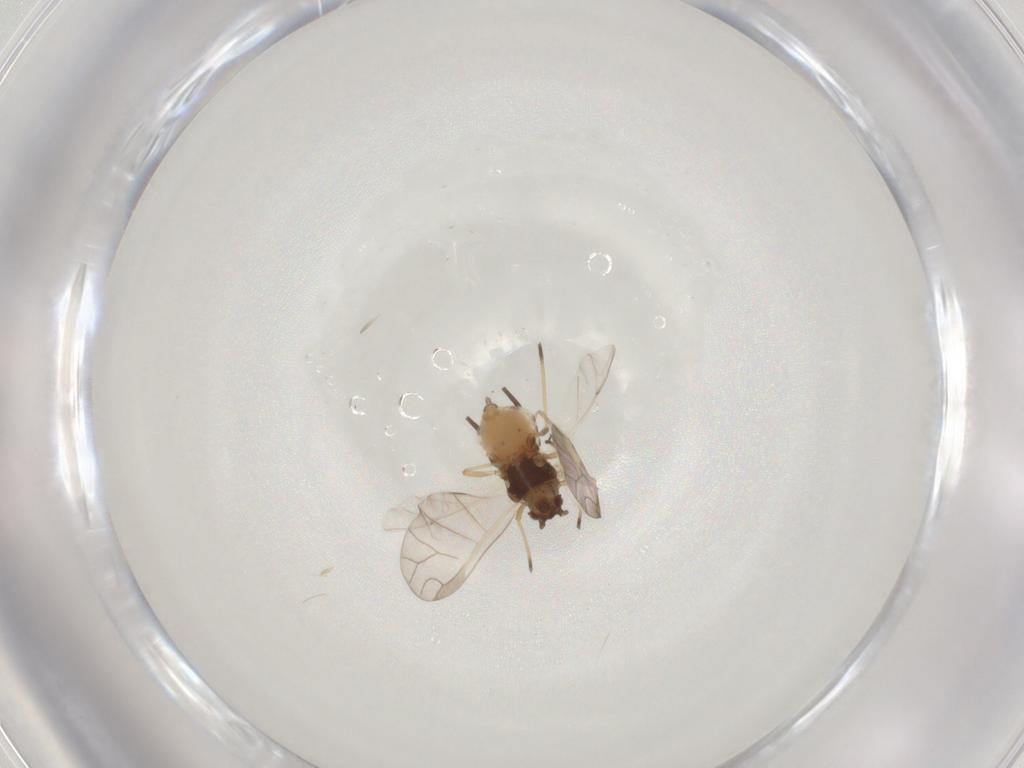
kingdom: Animalia
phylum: Arthropoda
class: Insecta
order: Hemiptera
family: Aphididae
